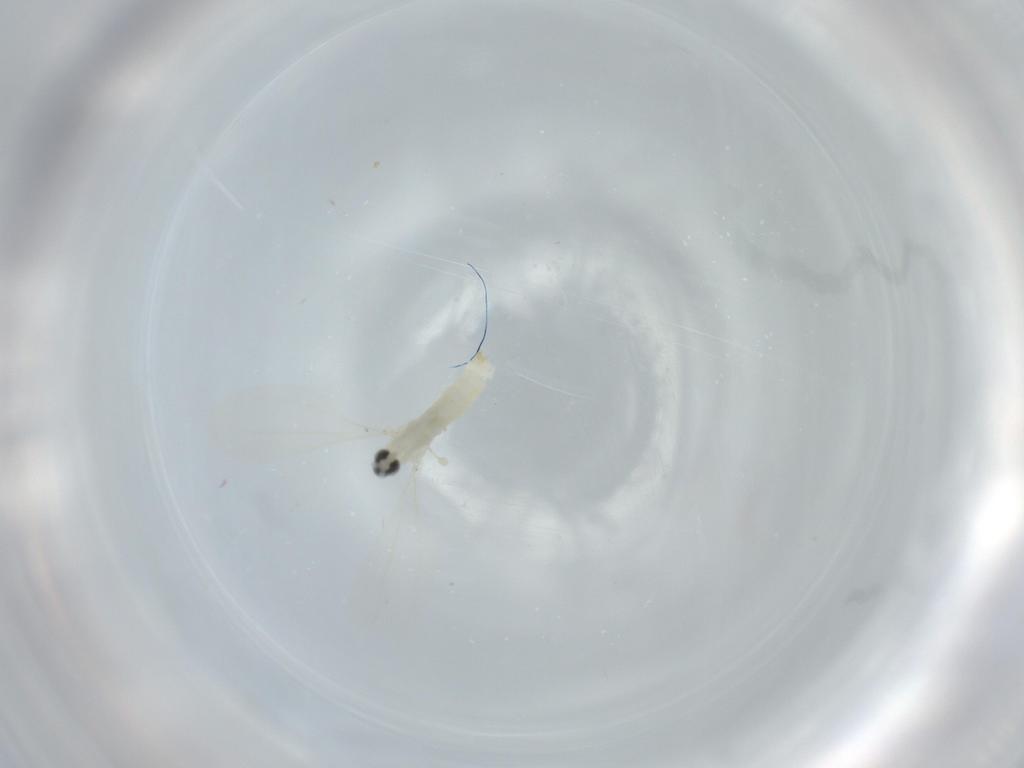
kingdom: Animalia
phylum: Arthropoda
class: Insecta
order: Diptera
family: Cecidomyiidae
